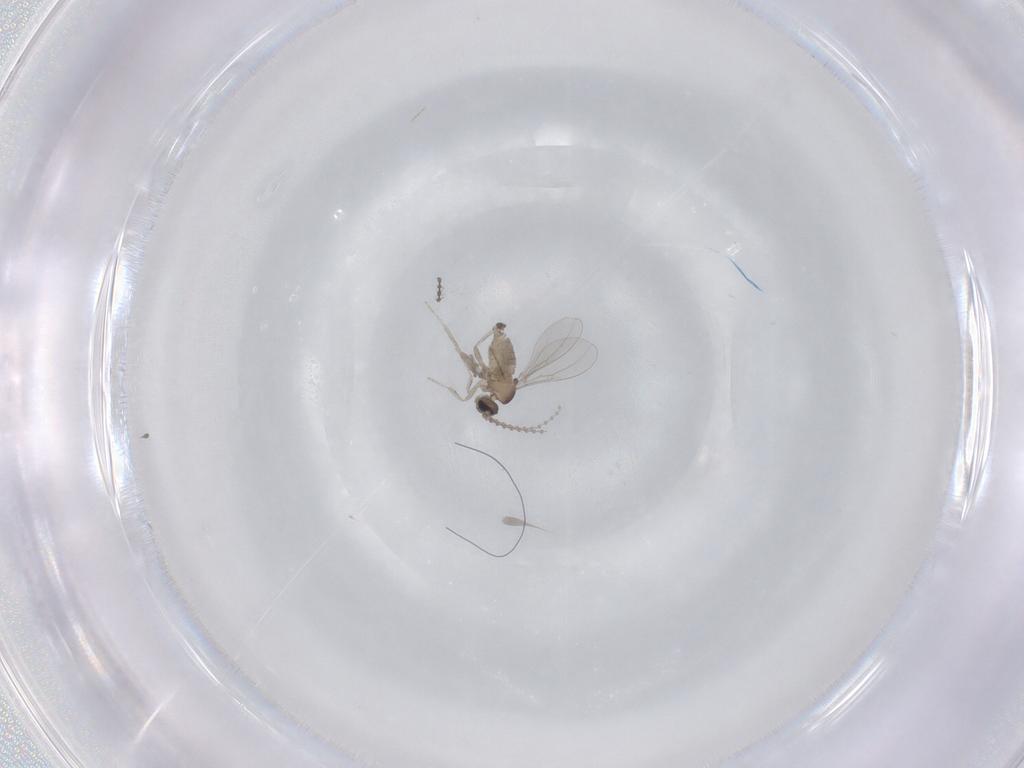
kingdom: Animalia
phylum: Arthropoda
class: Insecta
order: Diptera
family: Cecidomyiidae
